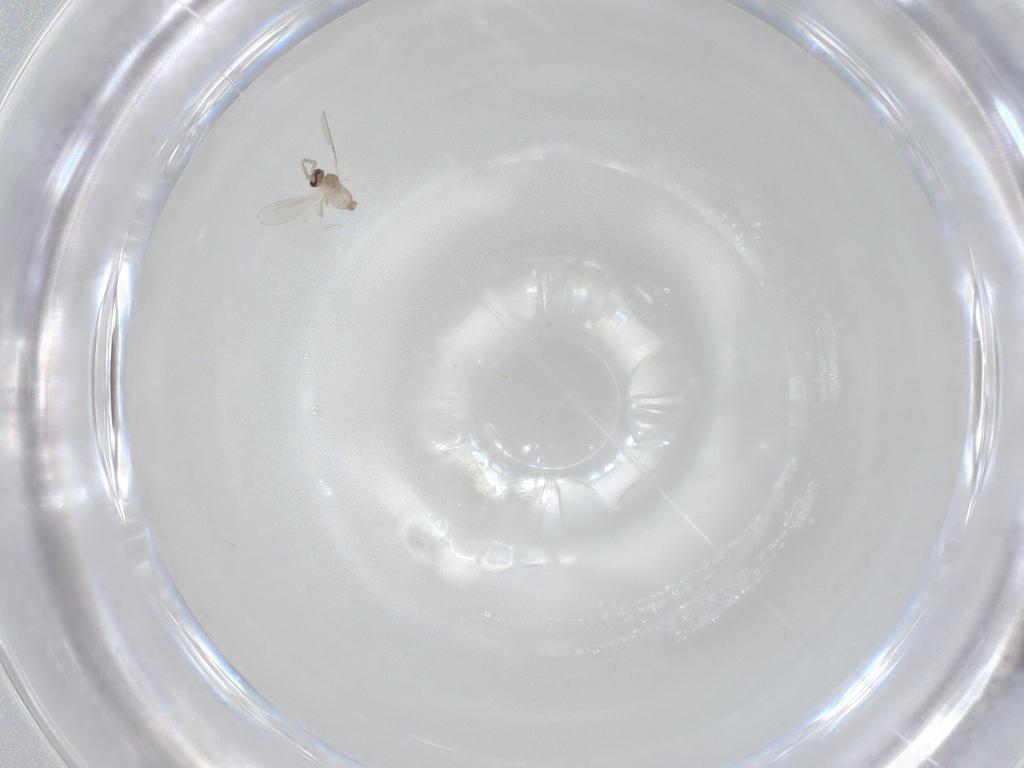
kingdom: Animalia
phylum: Arthropoda
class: Insecta
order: Diptera
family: Cecidomyiidae
